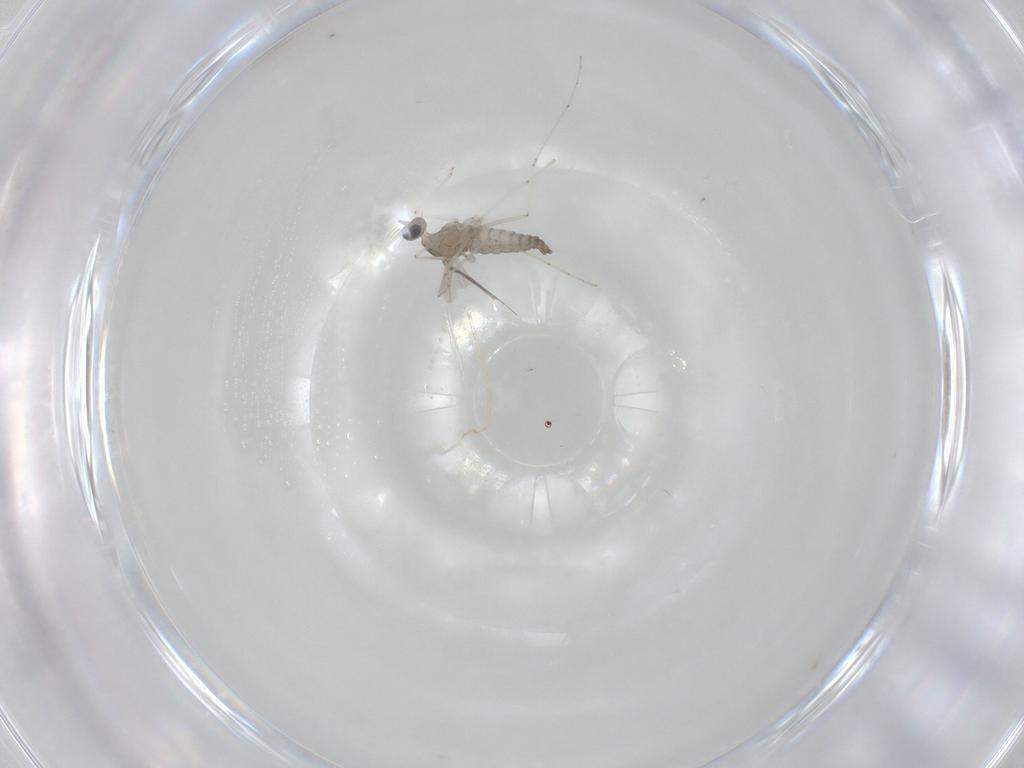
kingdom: Animalia
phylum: Arthropoda
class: Insecta
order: Diptera
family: Cecidomyiidae
